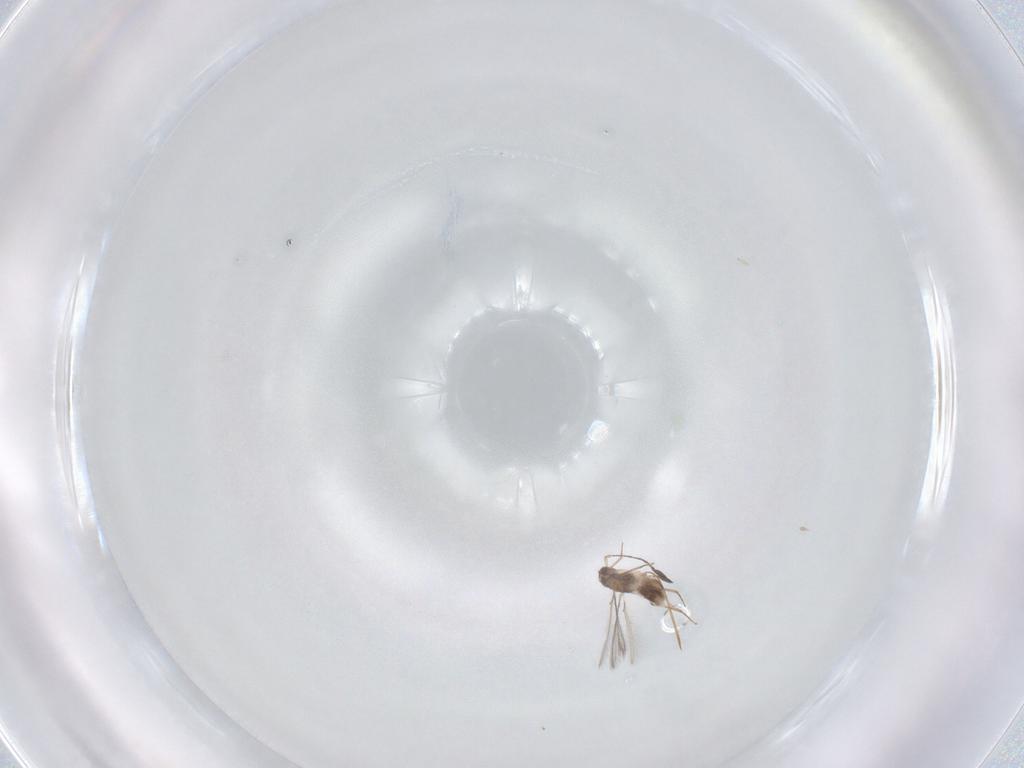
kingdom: Animalia
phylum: Arthropoda
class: Insecta
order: Hymenoptera
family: Mymaridae
